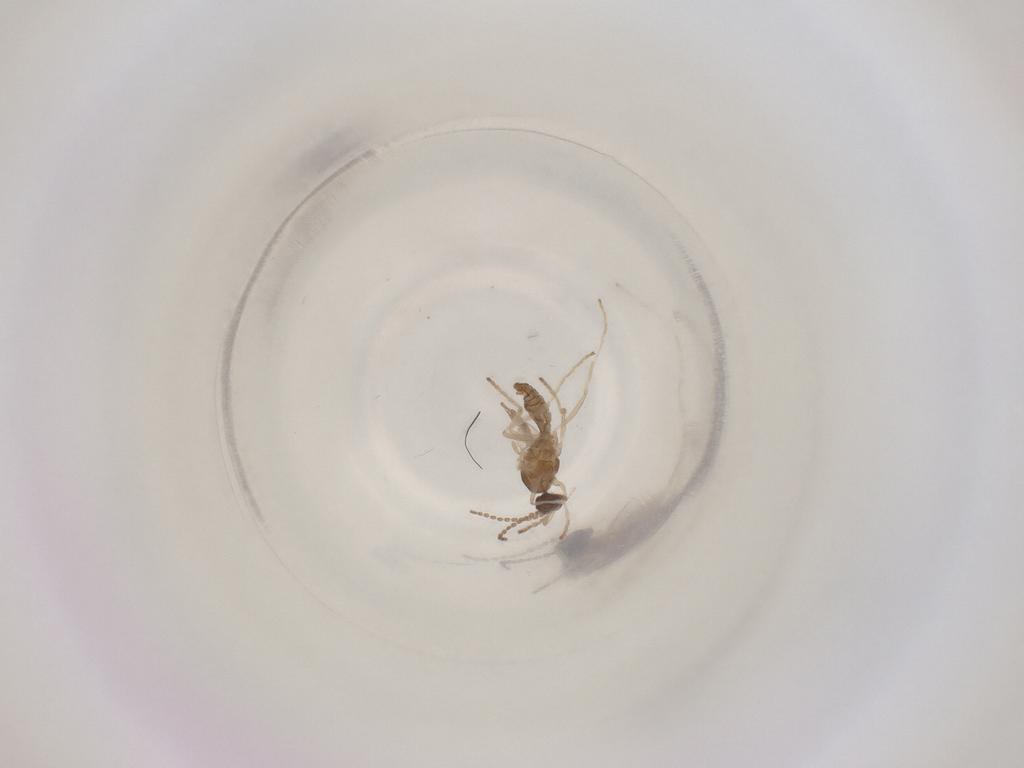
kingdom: Animalia
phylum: Arthropoda
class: Insecta
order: Diptera
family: Cecidomyiidae
